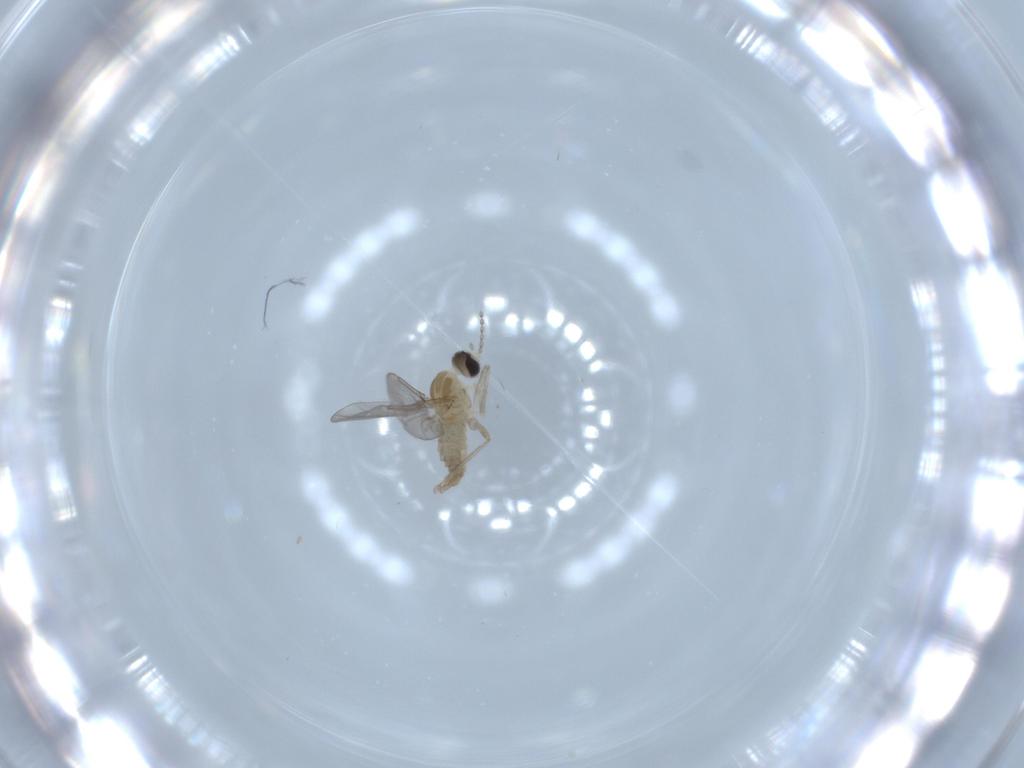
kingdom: Animalia
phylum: Arthropoda
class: Insecta
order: Diptera
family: Cecidomyiidae
